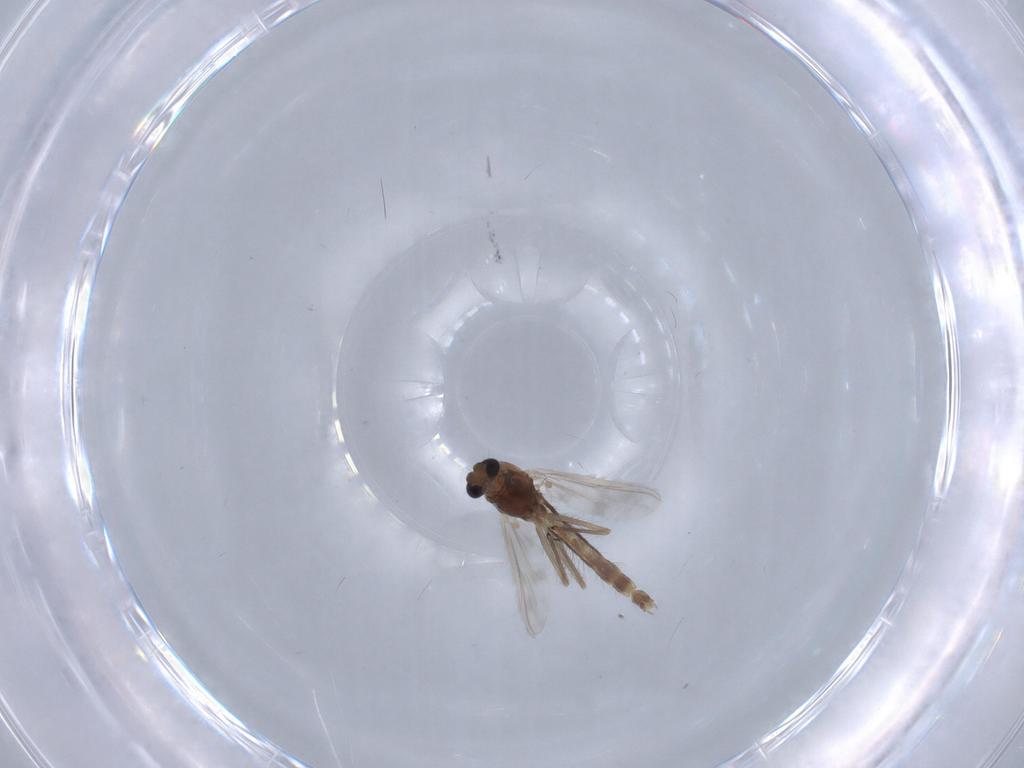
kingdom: Animalia
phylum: Arthropoda
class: Insecta
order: Diptera
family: Chironomidae
